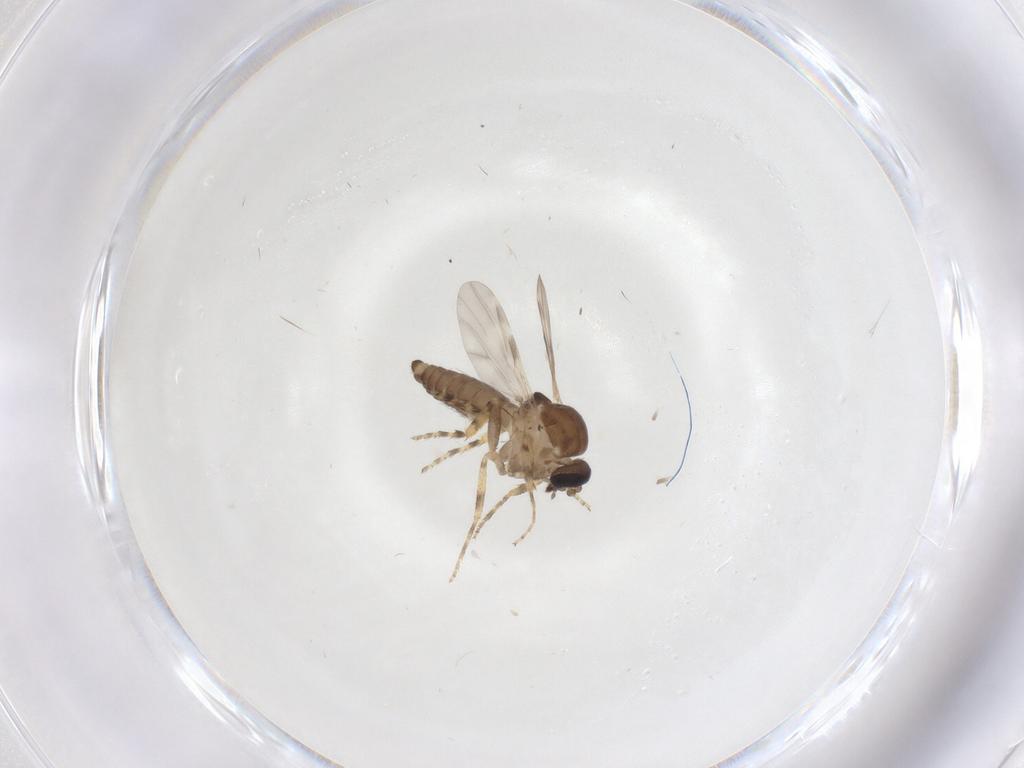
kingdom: Animalia
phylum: Arthropoda
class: Insecta
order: Diptera
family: Ceratopogonidae
